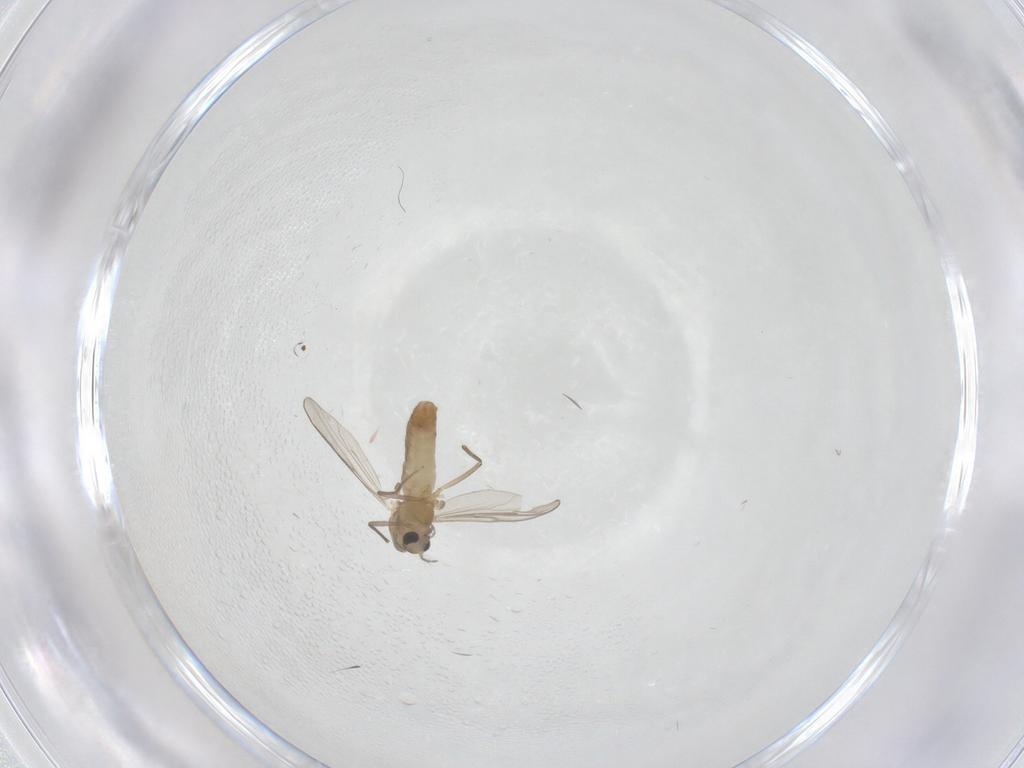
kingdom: Animalia
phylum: Arthropoda
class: Insecta
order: Diptera
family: Chironomidae
